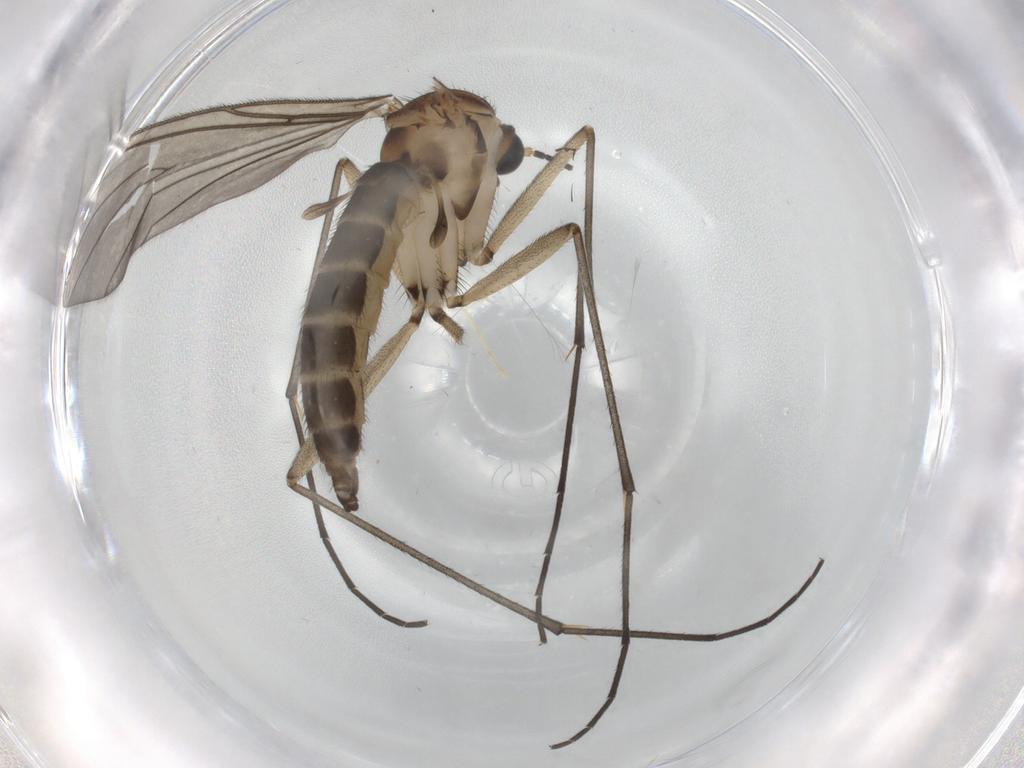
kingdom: Animalia
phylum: Arthropoda
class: Insecta
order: Diptera
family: Sciaridae
